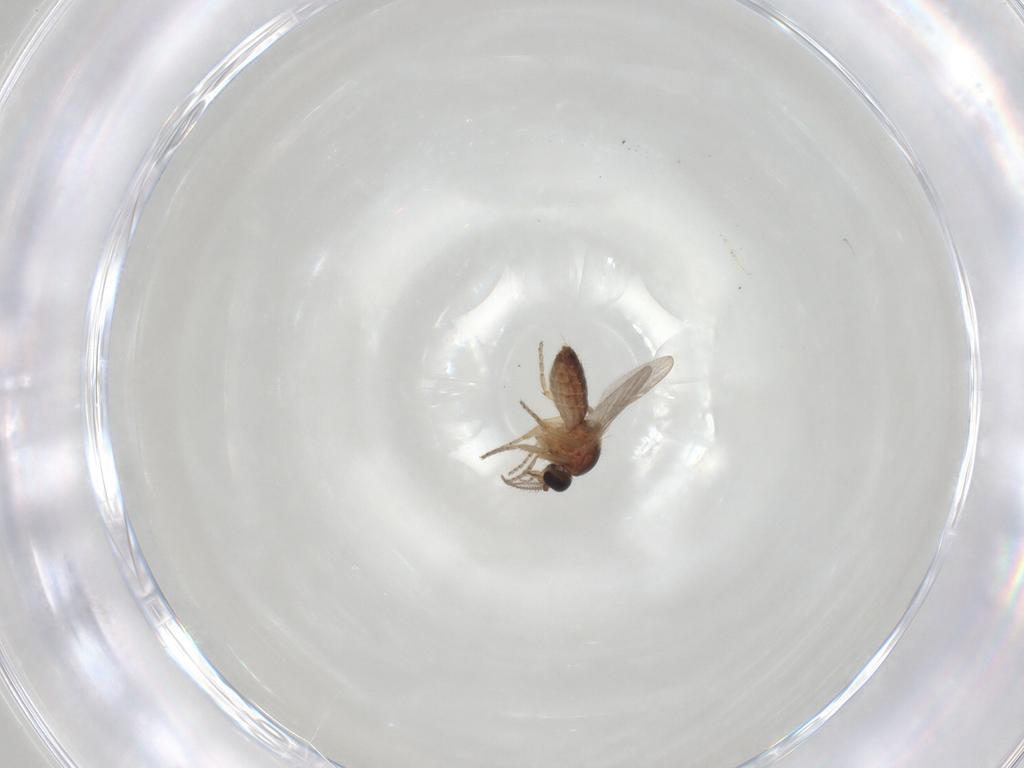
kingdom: Animalia
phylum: Arthropoda
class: Insecta
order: Diptera
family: Ceratopogonidae
